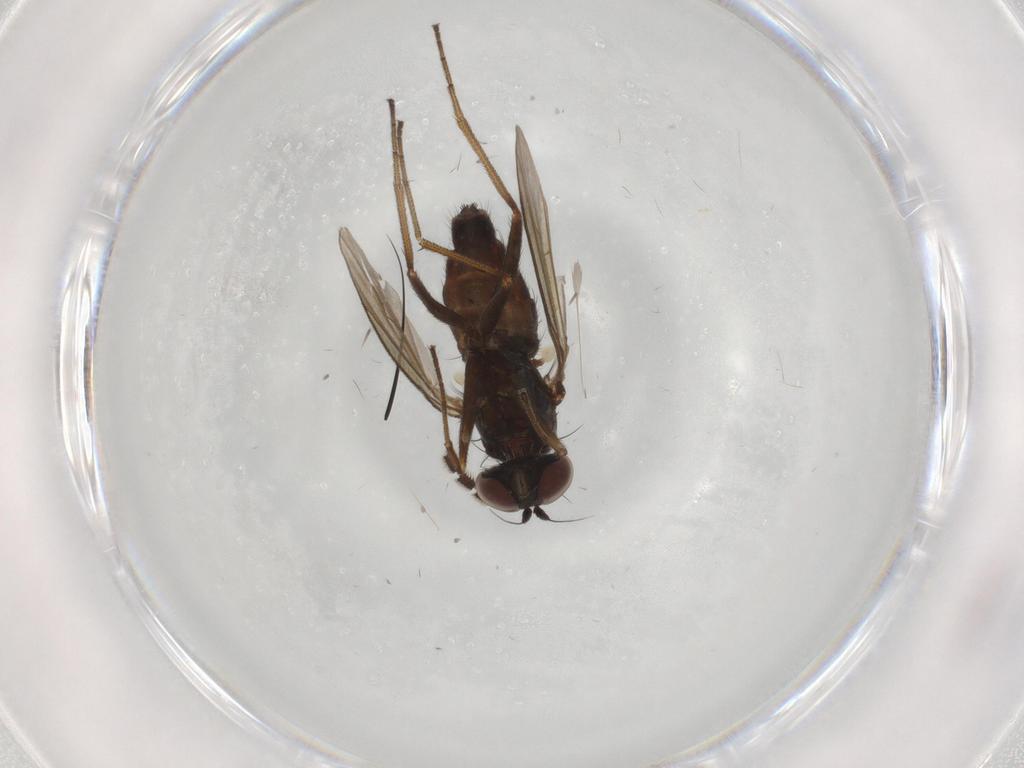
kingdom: Animalia
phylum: Arthropoda
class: Insecta
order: Diptera
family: Dolichopodidae
